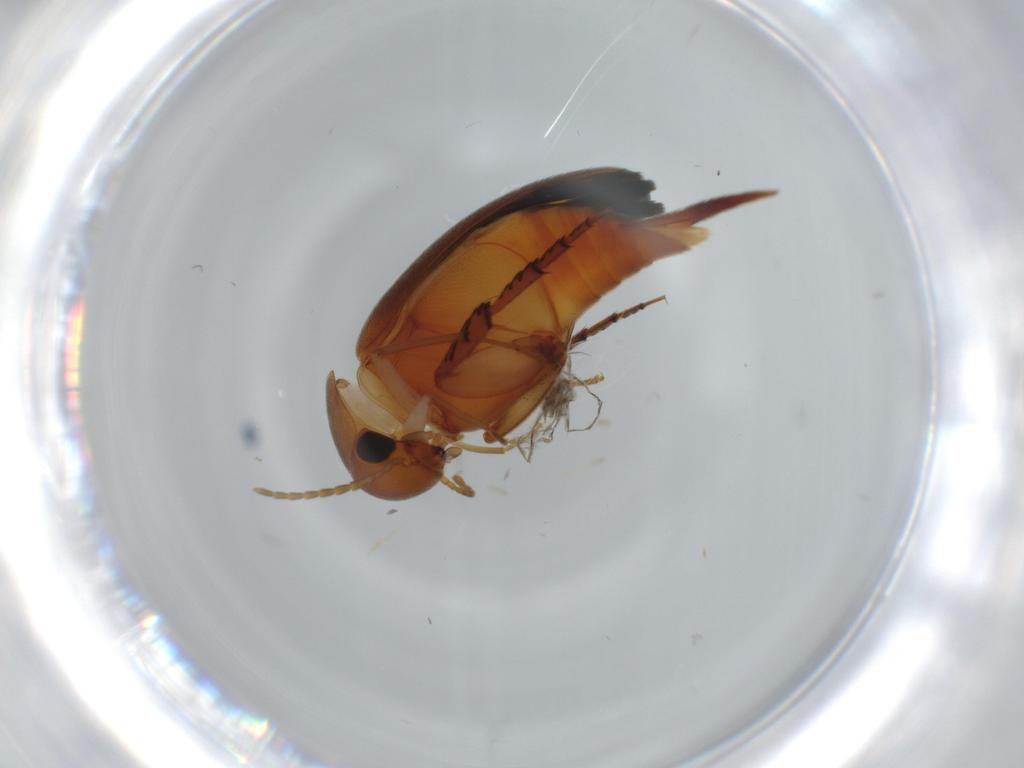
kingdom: Animalia
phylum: Arthropoda
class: Insecta
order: Coleoptera
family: Mordellidae
